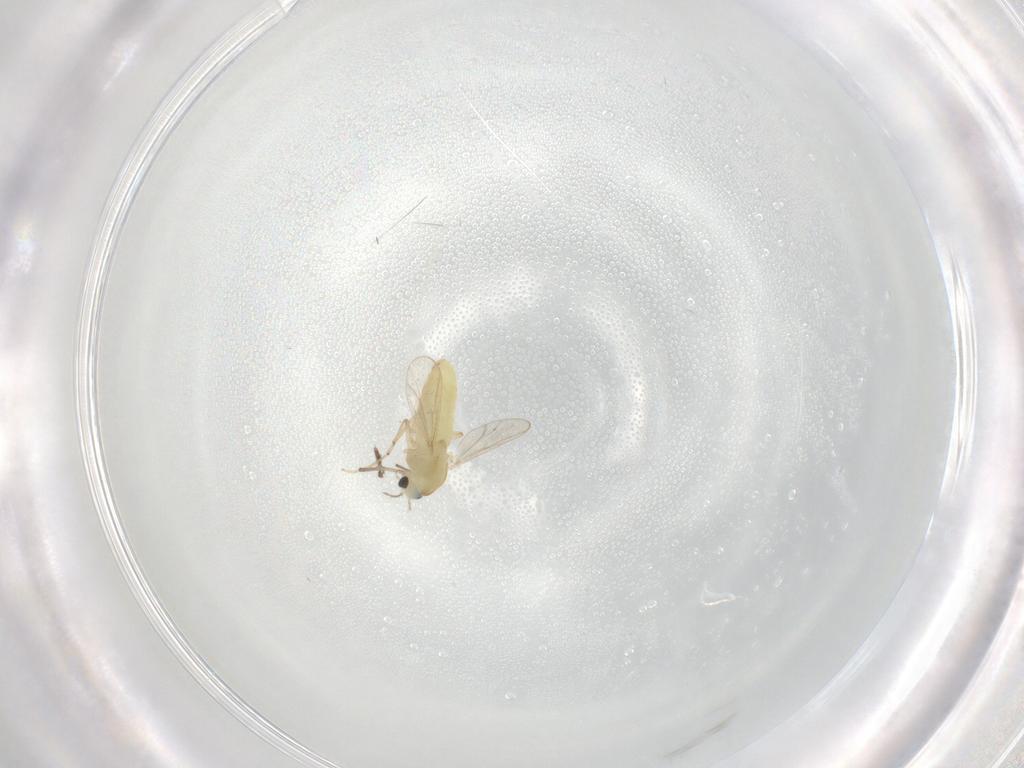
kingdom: Animalia
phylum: Arthropoda
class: Insecta
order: Diptera
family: Chironomidae
